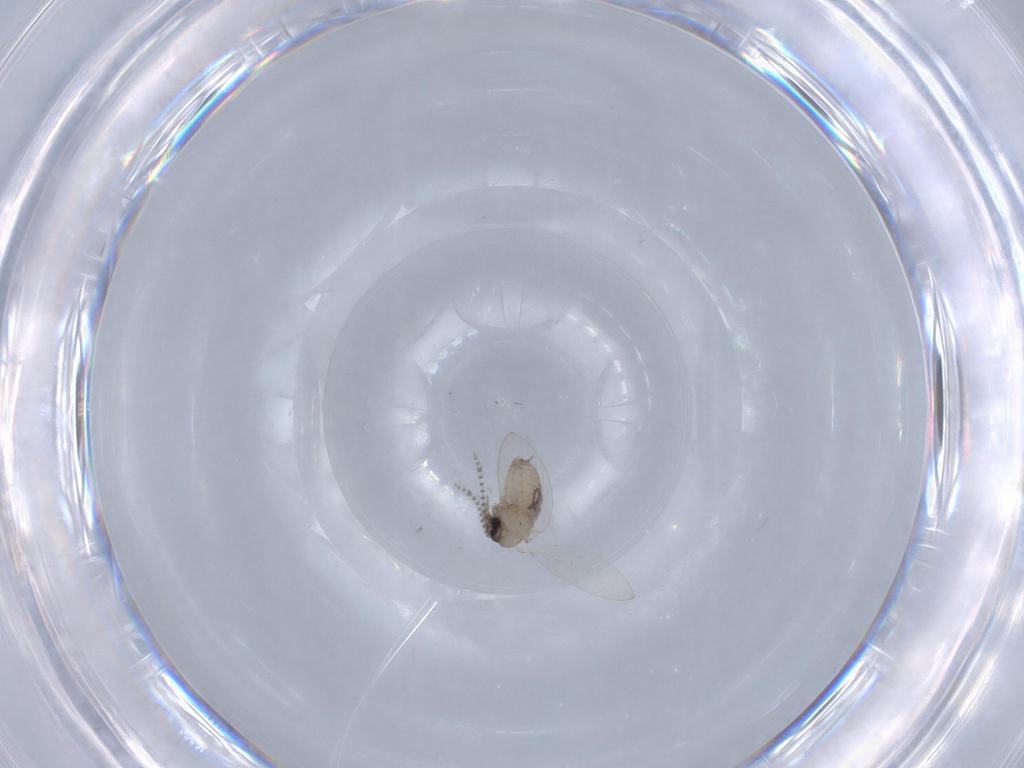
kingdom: Animalia
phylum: Arthropoda
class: Insecta
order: Diptera
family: Psychodidae
